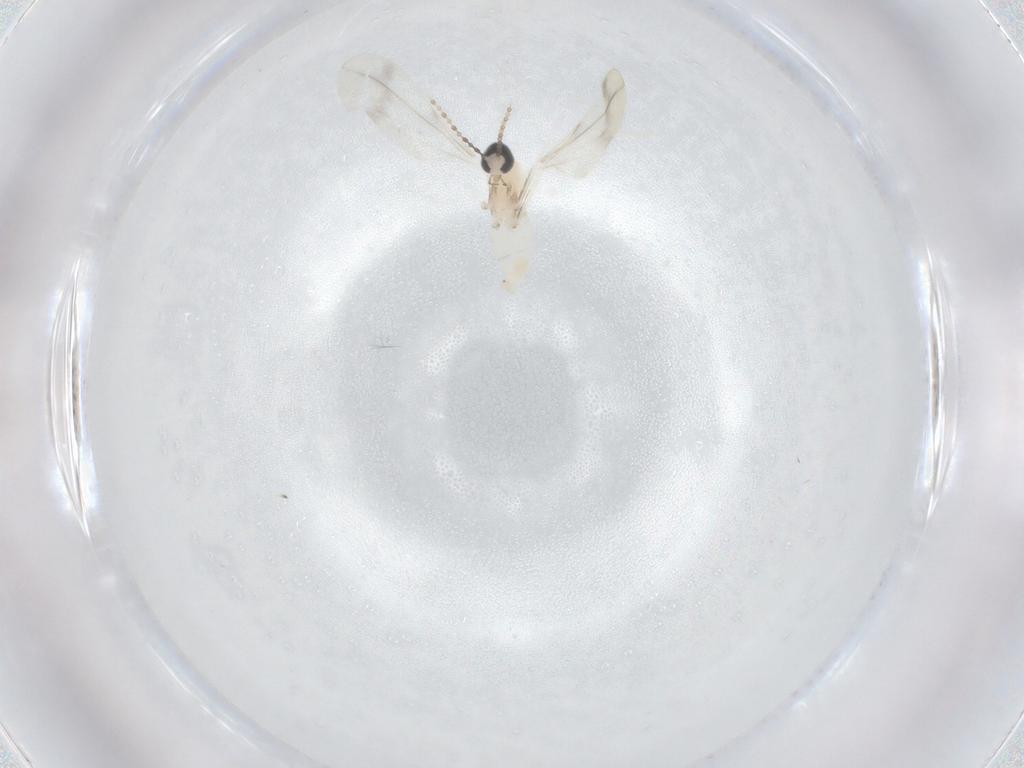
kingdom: Animalia
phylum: Arthropoda
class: Insecta
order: Diptera
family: Cecidomyiidae
